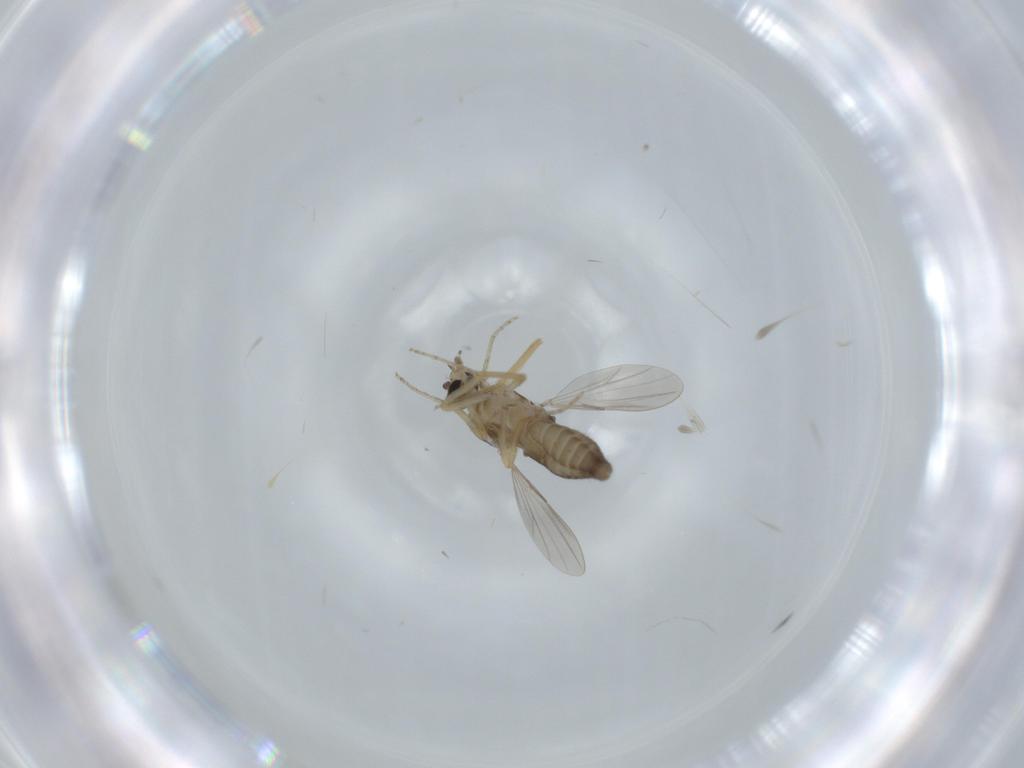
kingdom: Animalia
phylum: Arthropoda
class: Insecta
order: Diptera
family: Ceratopogonidae
